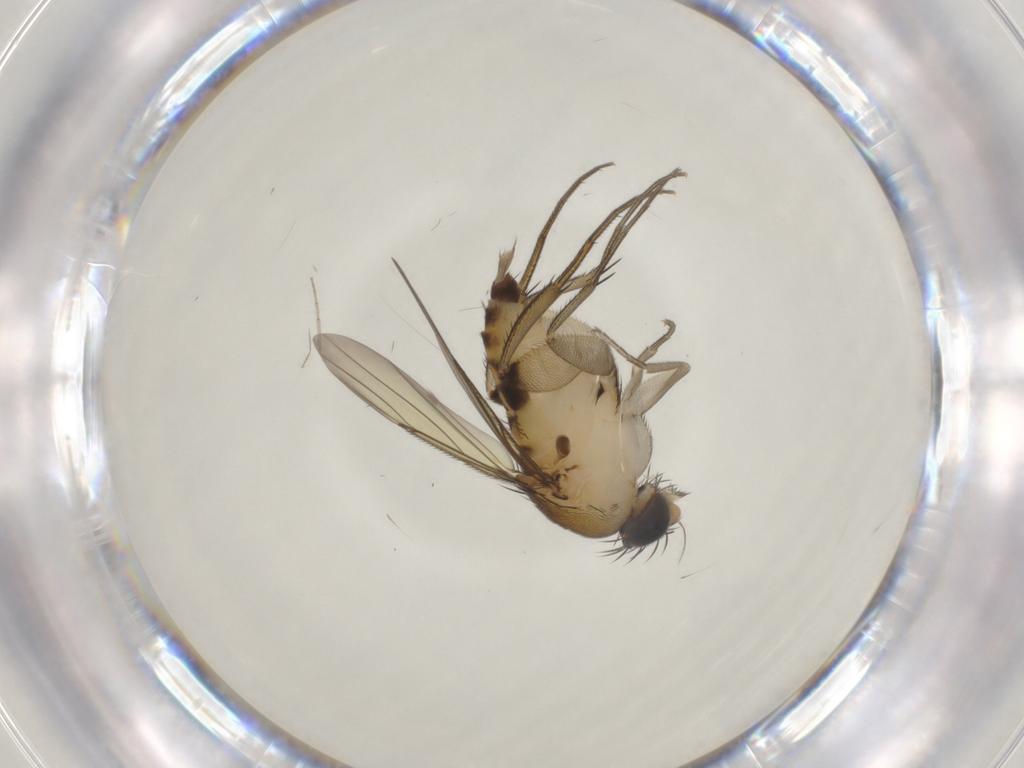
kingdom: Animalia
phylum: Arthropoda
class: Insecta
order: Diptera
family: Phoridae
